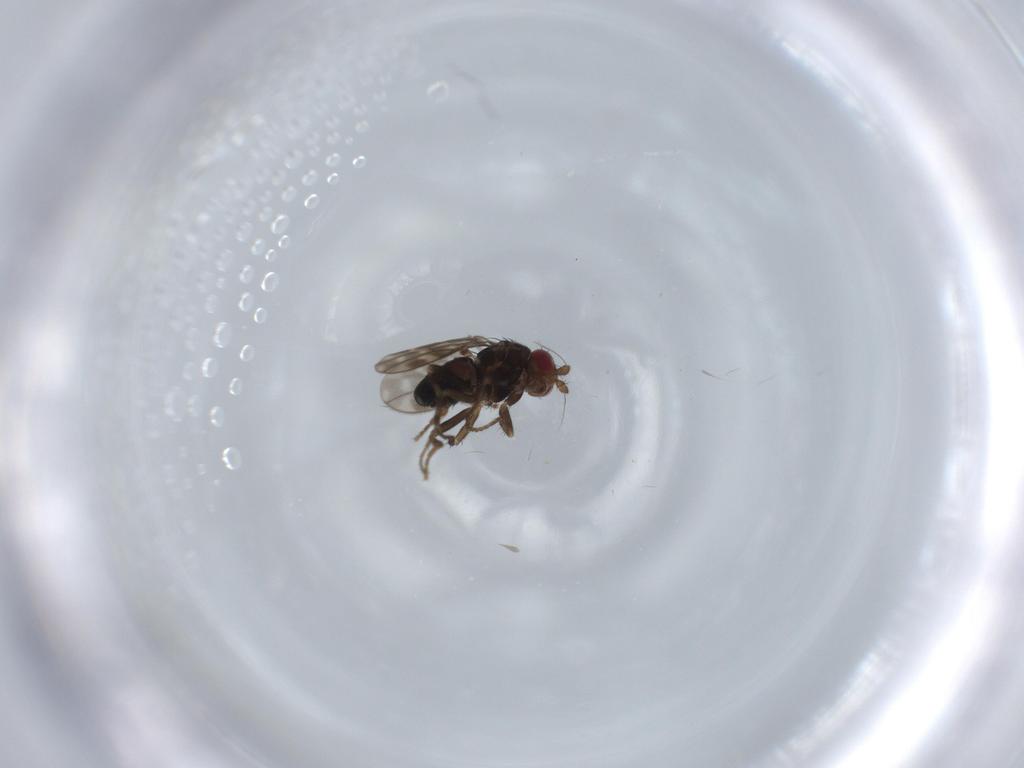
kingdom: Animalia
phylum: Arthropoda
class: Insecta
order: Diptera
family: Sphaeroceridae
